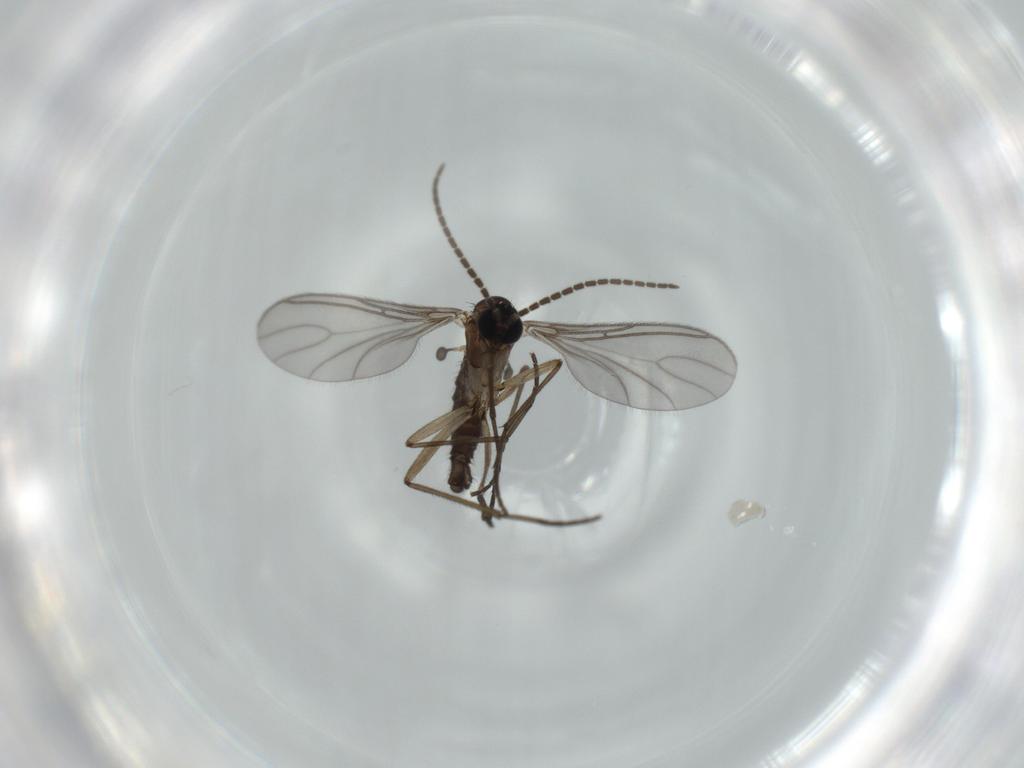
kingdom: Animalia
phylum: Arthropoda
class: Insecta
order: Diptera
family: Sciaridae
